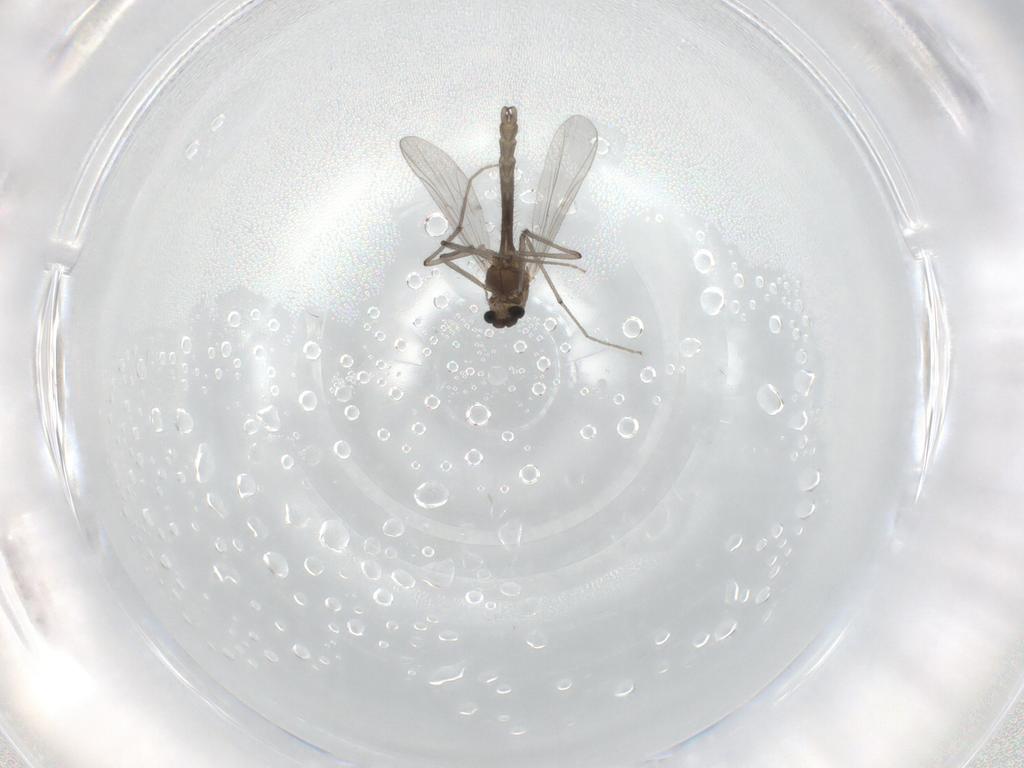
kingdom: Animalia
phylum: Arthropoda
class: Insecta
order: Diptera
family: Chironomidae
